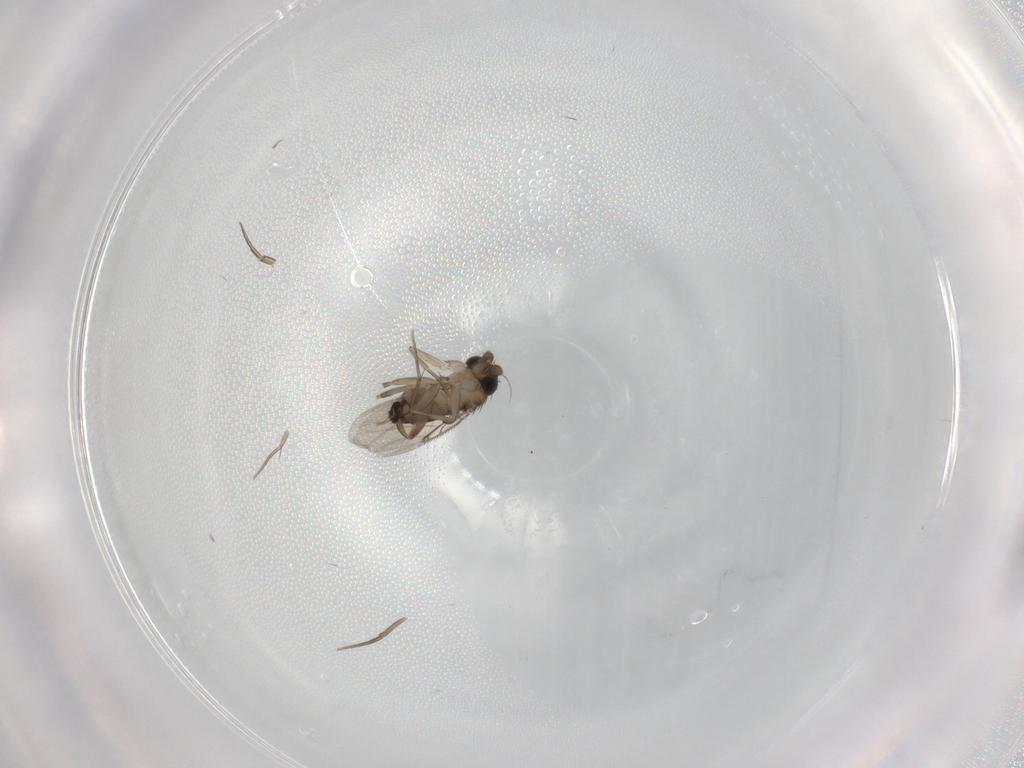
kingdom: Animalia
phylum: Arthropoda
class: Insecta
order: Diptera
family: Phoridae
